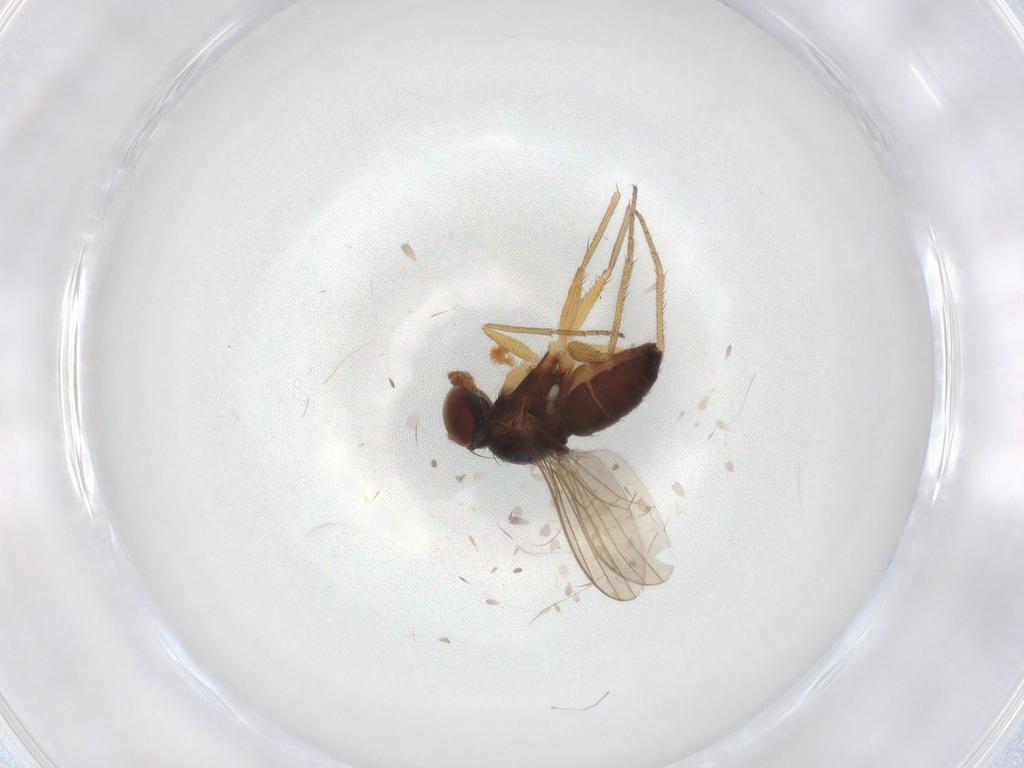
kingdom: Animalia
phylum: Arthropoda
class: Insecta
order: Diptera
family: Dolichopodidae
